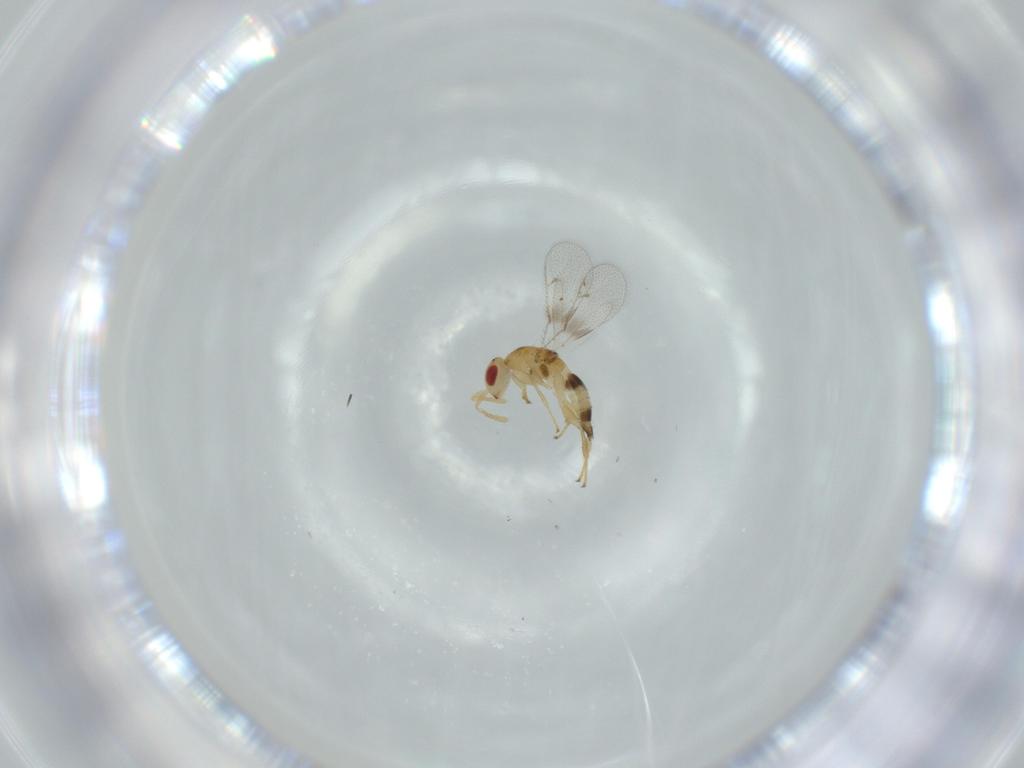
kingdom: Animalia
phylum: Arthropoda
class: Insecta
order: Hymenoptera
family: Torymidae
